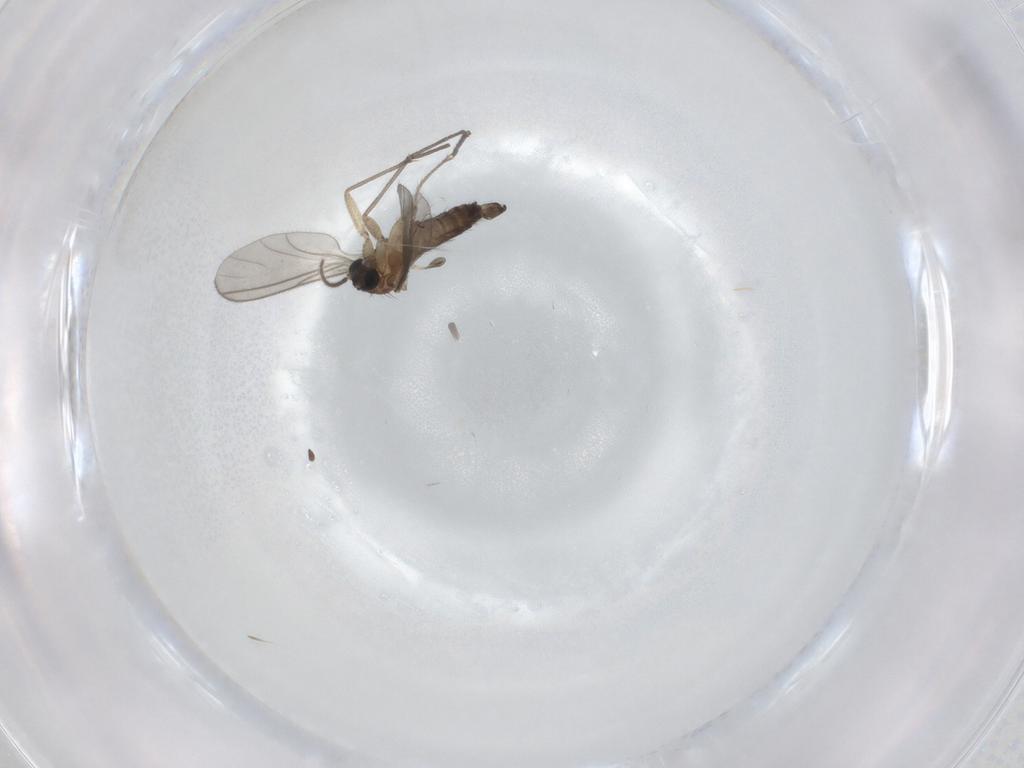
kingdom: Animalia
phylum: Arthropoda
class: Insecta
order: Diptera
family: Sciaridae
